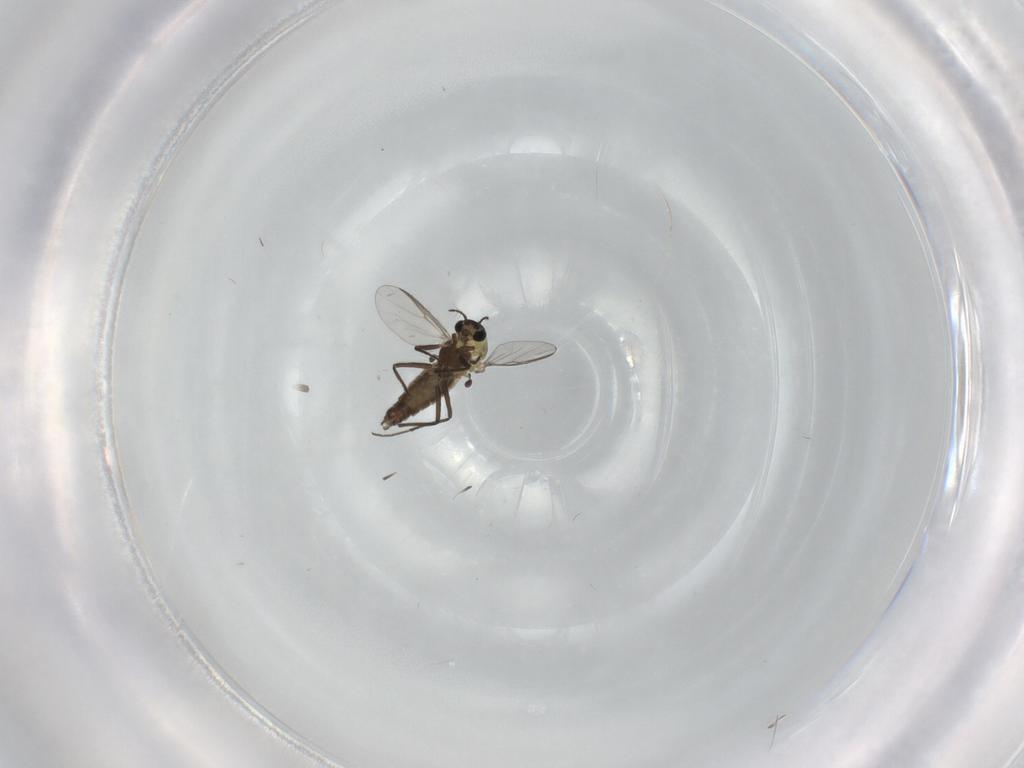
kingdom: Animalia
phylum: Arthropoda
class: Insecta
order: Diptera
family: Chironomidae
